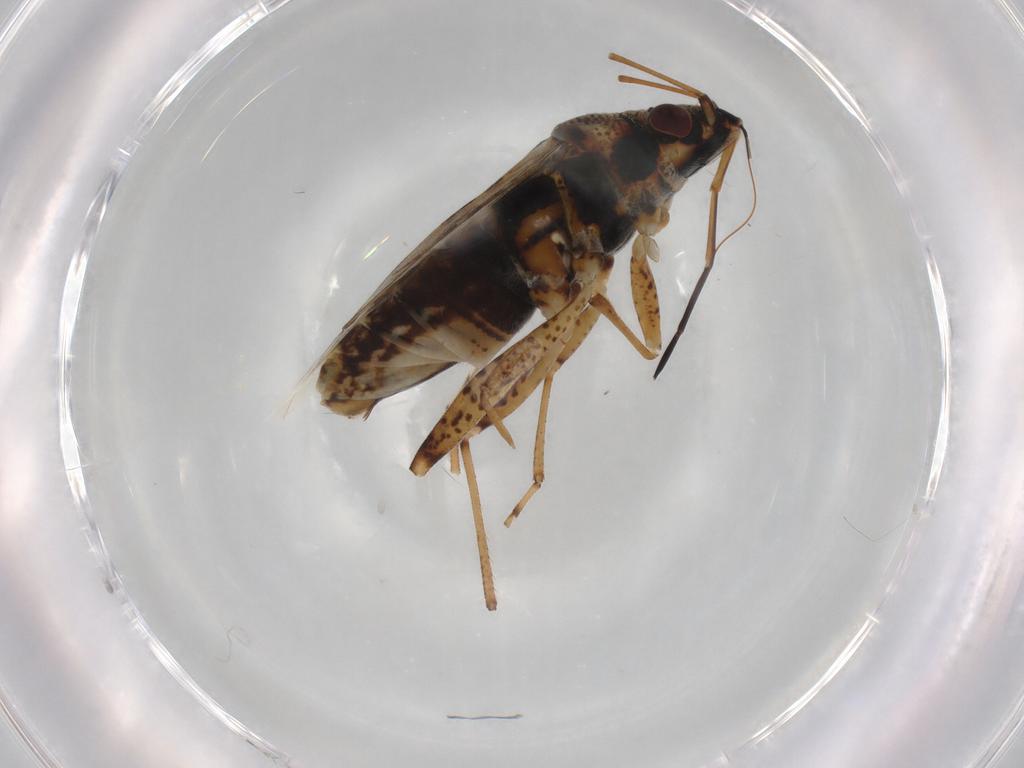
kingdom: Animalia
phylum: Arthropoda
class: Insecta
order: Hemiptera
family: Lygaeidae
